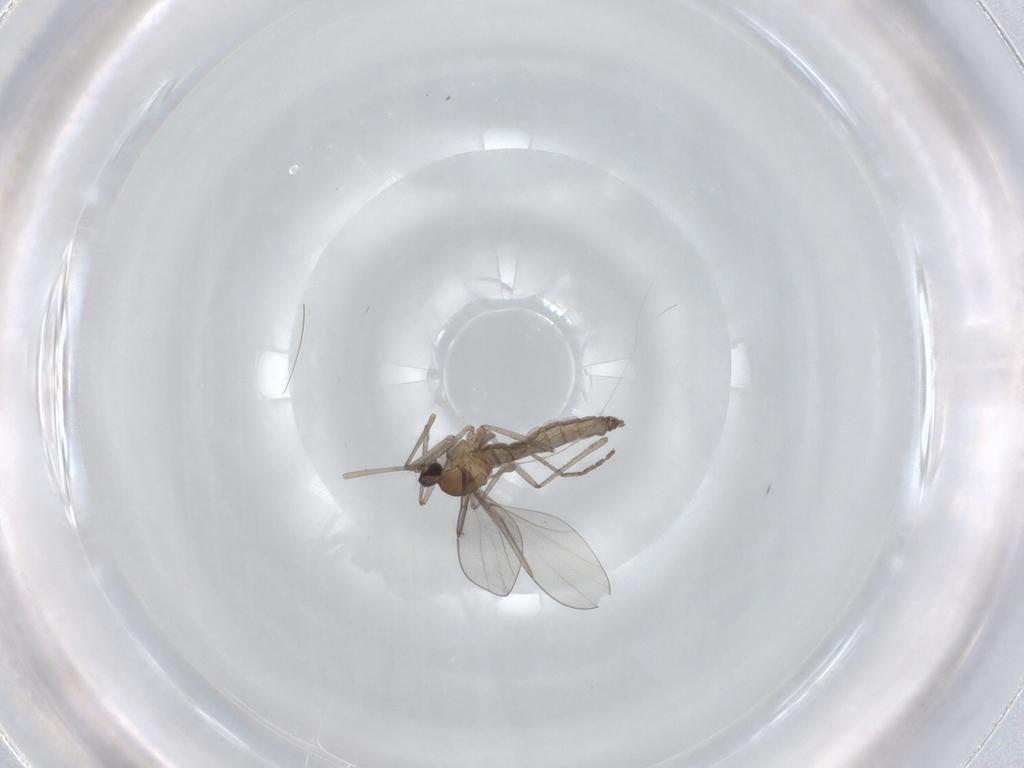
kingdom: Animalia
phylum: Arthropoda
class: Insecta
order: Diptera
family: Cecidomyiidae
